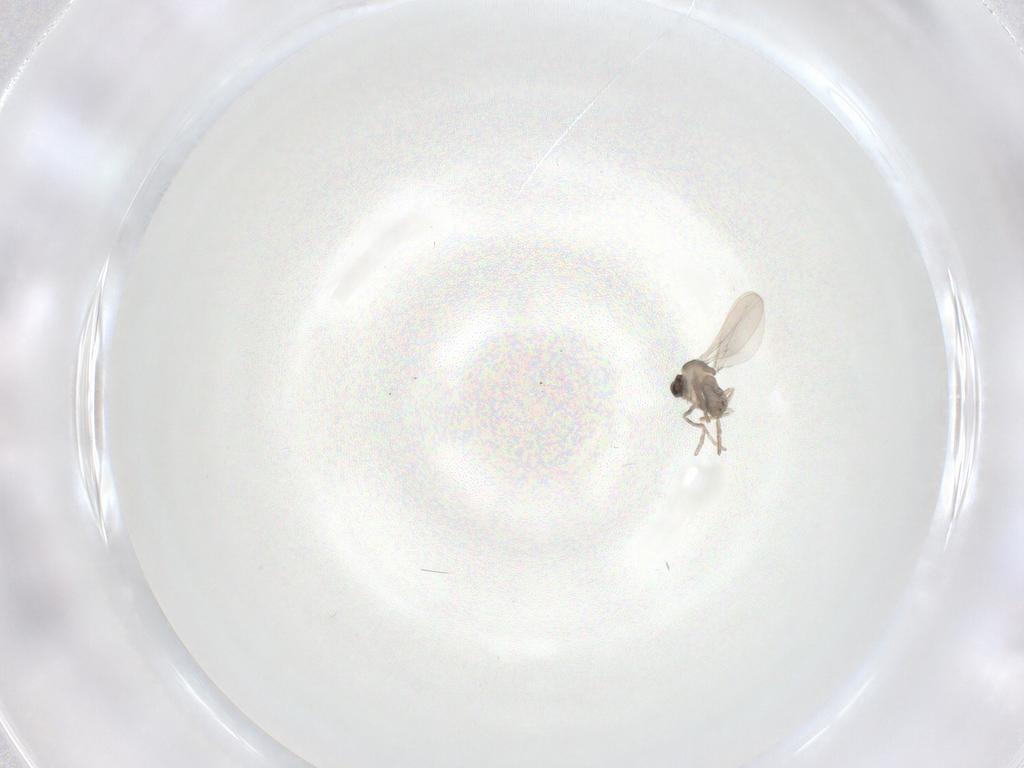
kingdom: Animalia
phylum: Arthropoda
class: Insecta
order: Diptera
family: Cecidomyiidae
